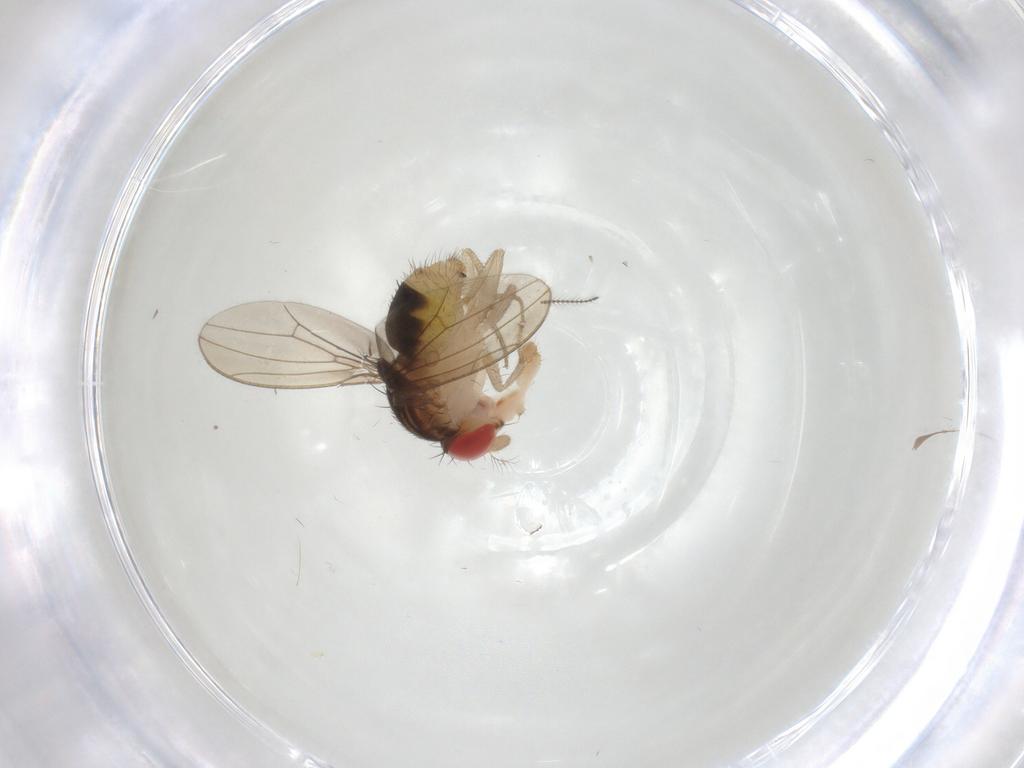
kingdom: Animalia
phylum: Arthropoda
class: Insecta
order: Diptera
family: Drosophilidae
